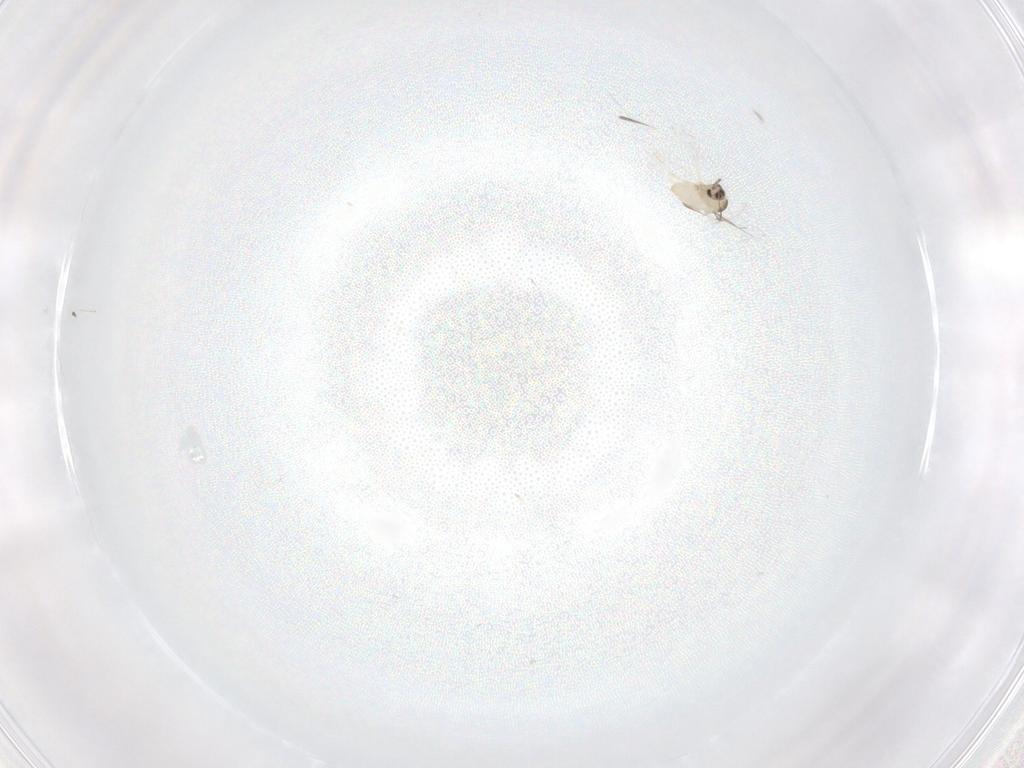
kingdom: Animalia
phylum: Arthropoda
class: Insecta
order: Diptera
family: Cecidomyiidae
